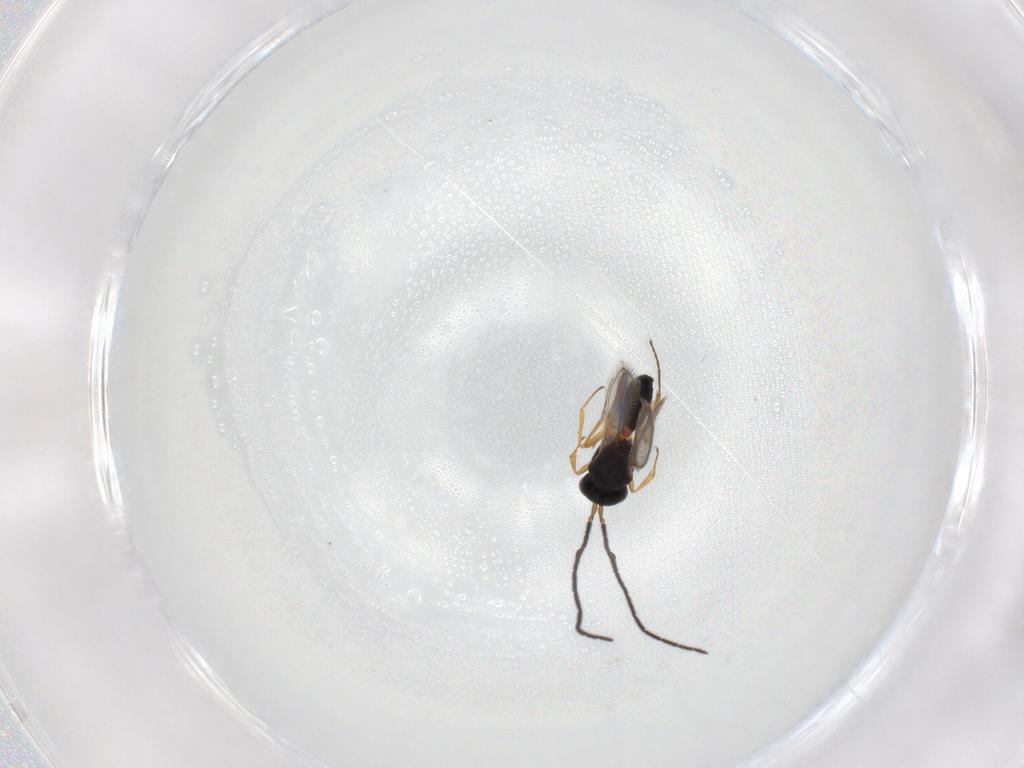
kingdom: Animalia
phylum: Arthropoda
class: Insecta
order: Hymenoptera
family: Scelionidae
